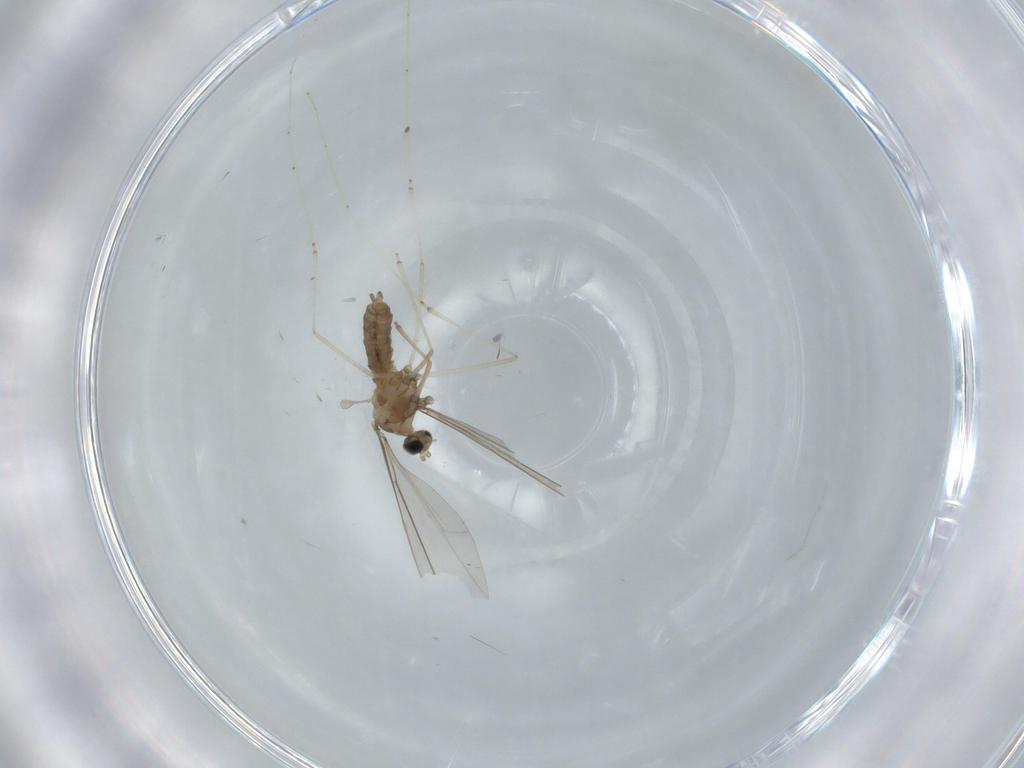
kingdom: Animalia
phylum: Arthropoda
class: Insecta
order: Diptera
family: Cecidomyiidae
